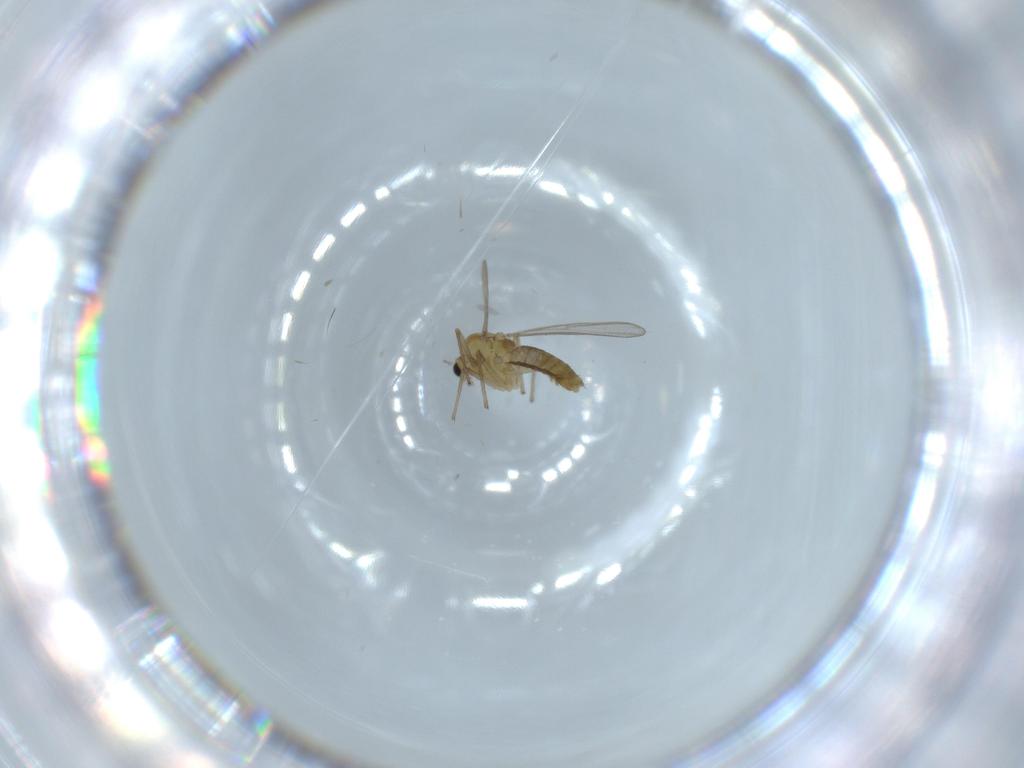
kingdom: Animalia
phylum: Arthropoda
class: Insecta
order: Diptera
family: Chironomidae
